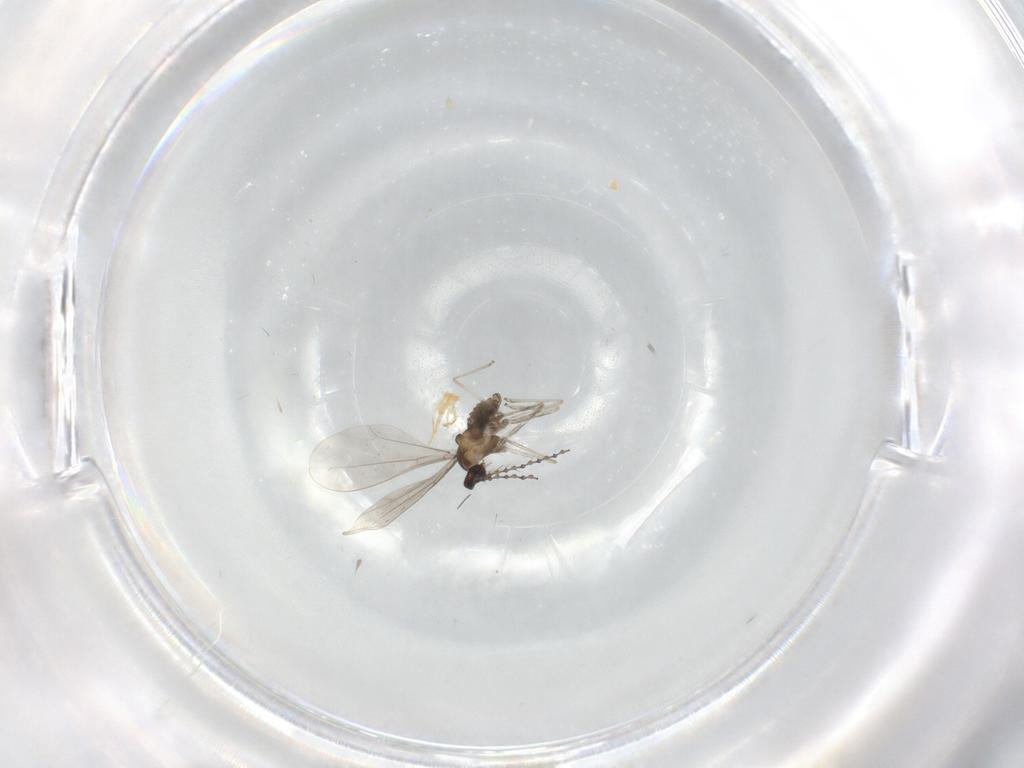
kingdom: Animalia
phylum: Arthropoda
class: Insecta
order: Diptera
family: Cecidomyiidae
